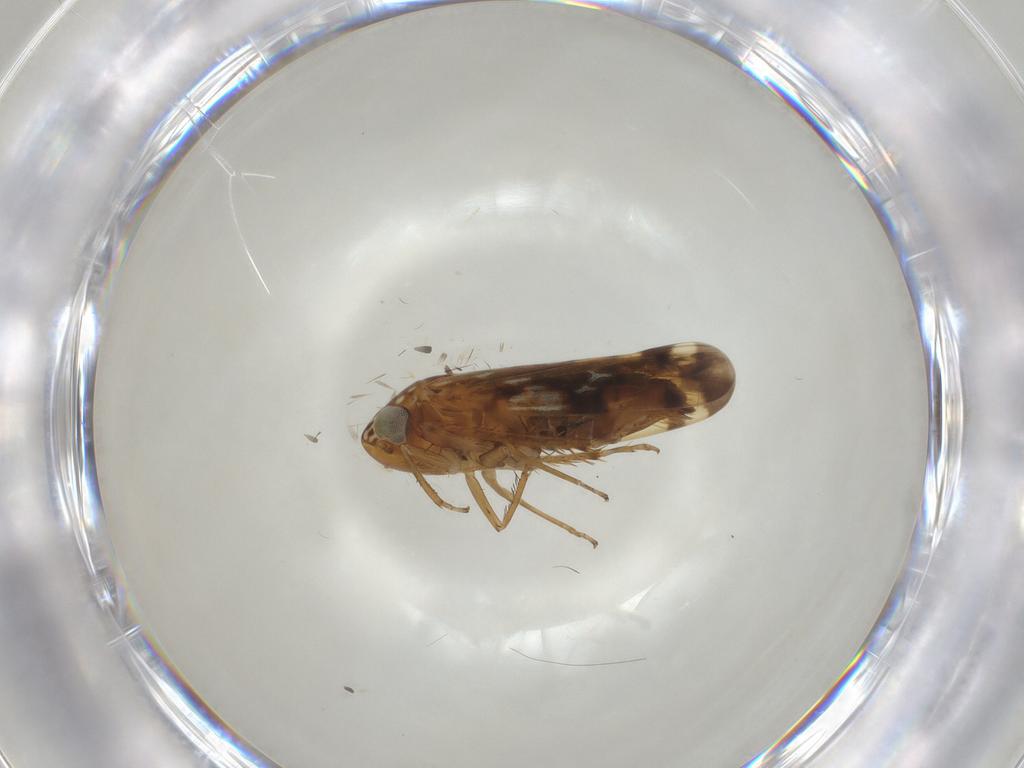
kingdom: Animalia
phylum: Arthropoda
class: Insecta
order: Hemiptera
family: Cicadellidae
